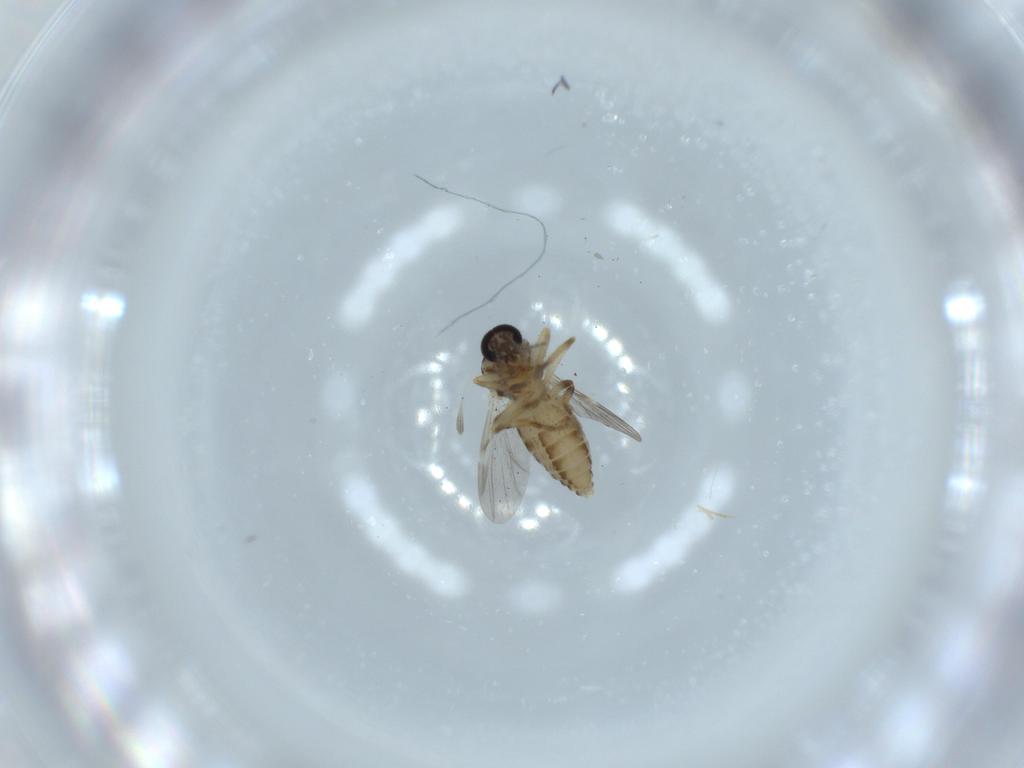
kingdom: Animalia
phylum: Arthropoda
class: Insecta
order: Diptera
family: Ceratopogonidae
